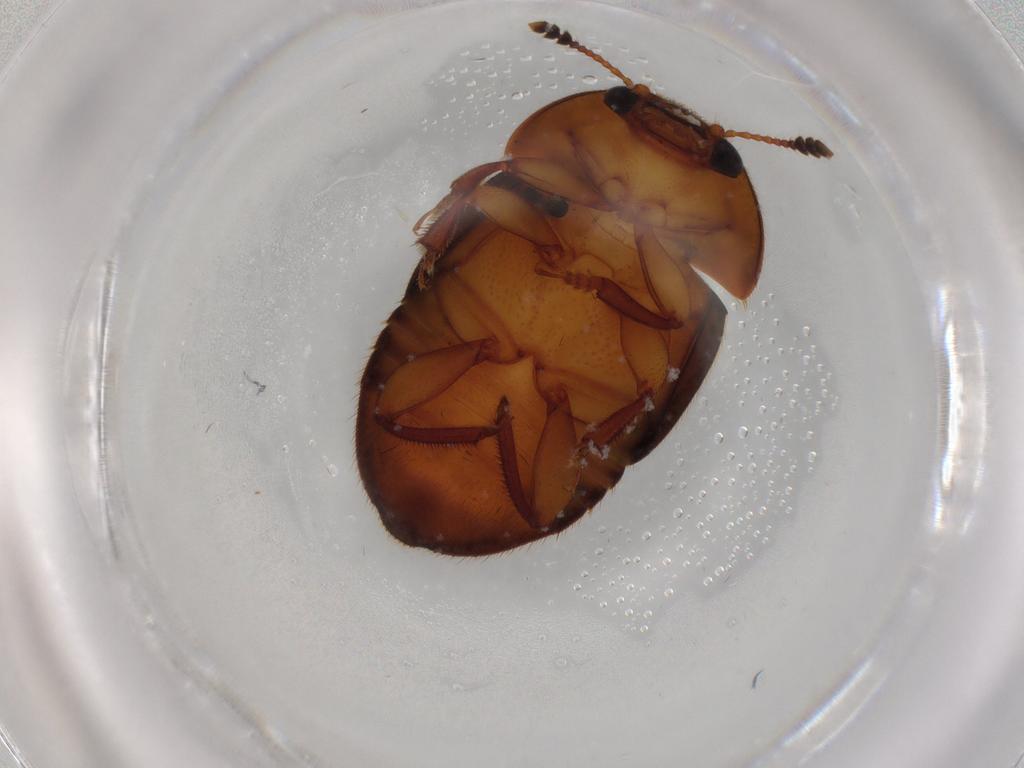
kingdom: Animalia
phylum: Arthropoda
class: Insecta
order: Coleoptera
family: Nitidulidae
